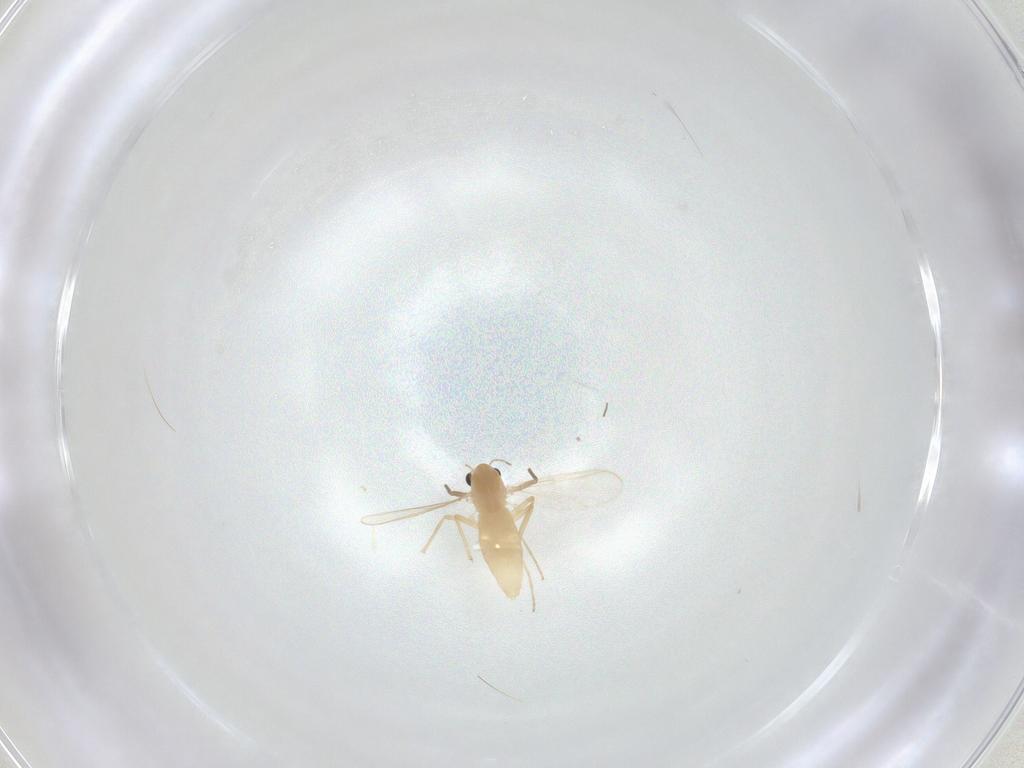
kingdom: Animalia
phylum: Arthropoda
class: Insecta
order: Diptera
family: Chironomidae
